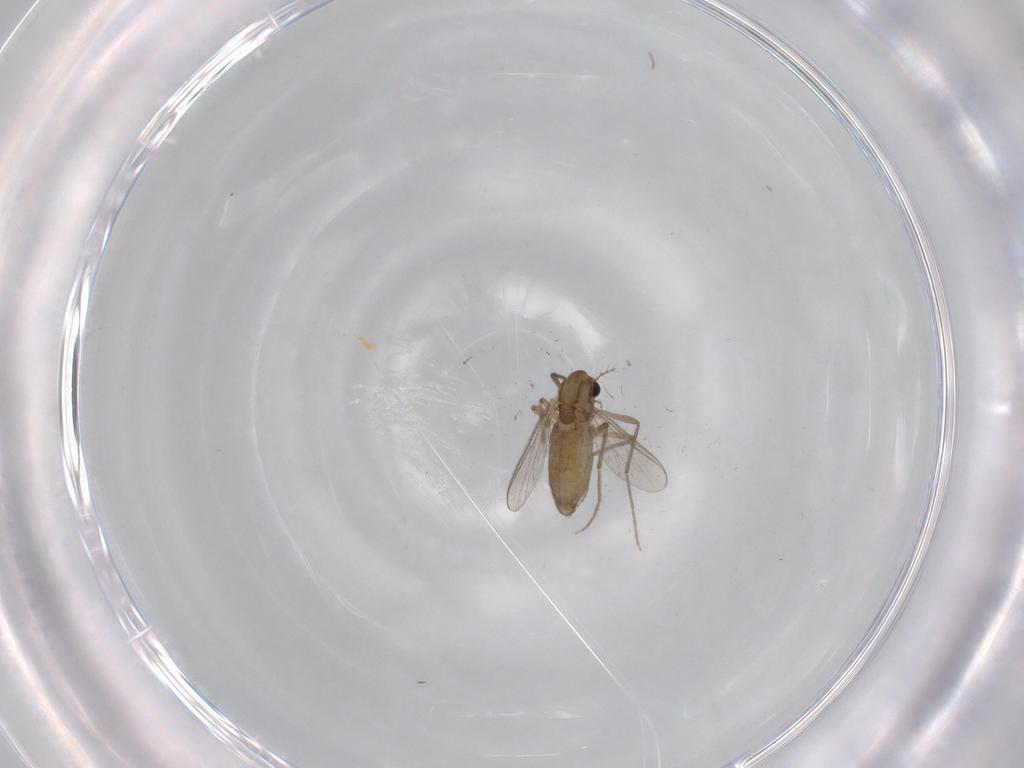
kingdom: Animalia
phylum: Arthropoda
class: Insecta
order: Diptera
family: Chironomidae
